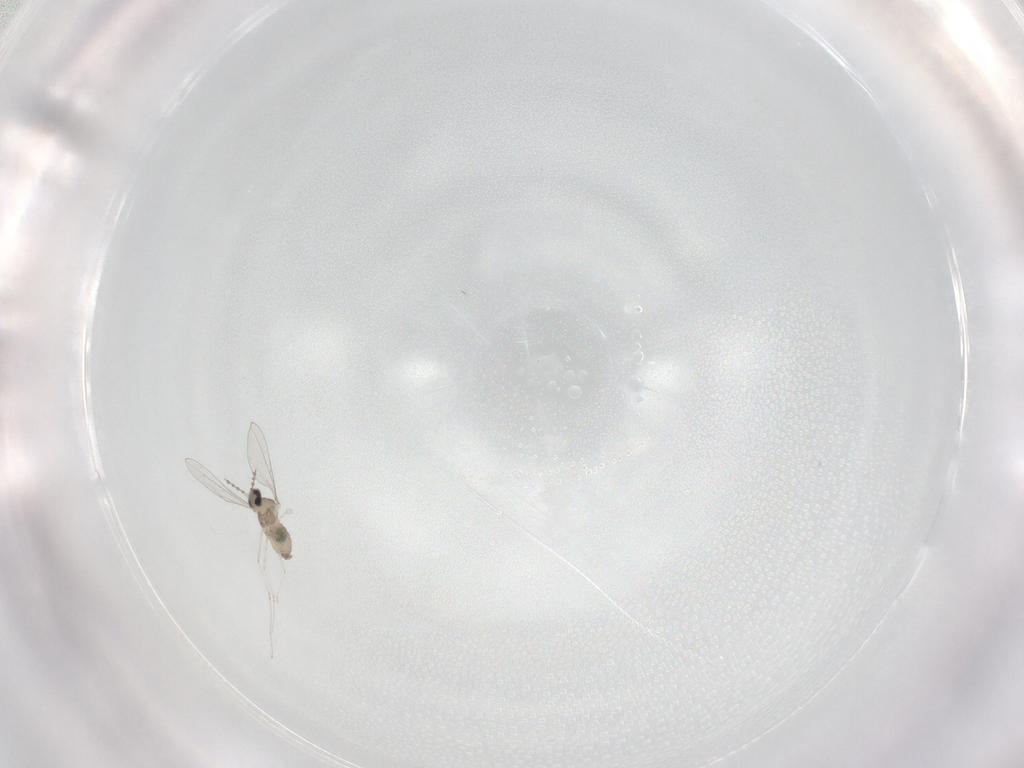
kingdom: Animalia
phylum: Arthropoda
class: Insecta
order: Diptera
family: Cecidomyiidae
